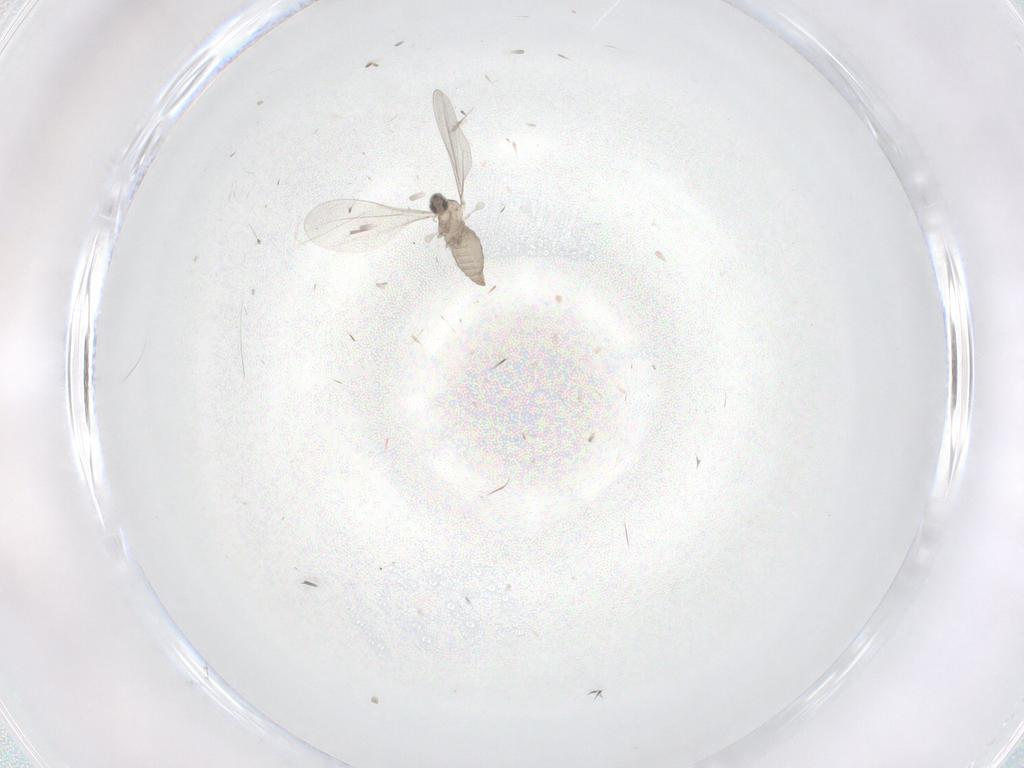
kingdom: Animalia
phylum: Arthropoda
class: Insecta
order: Diptera
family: Cecidomyiidae
